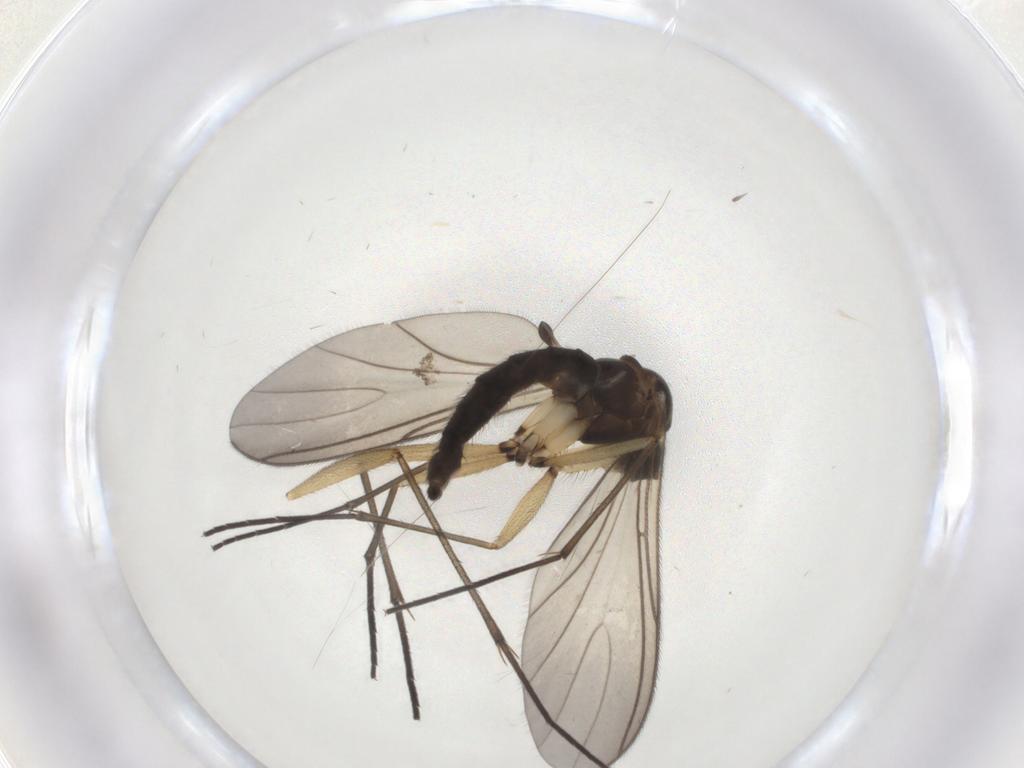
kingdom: Animalia
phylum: Arthropoda
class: Insecta
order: Diptera
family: Sciaridae
